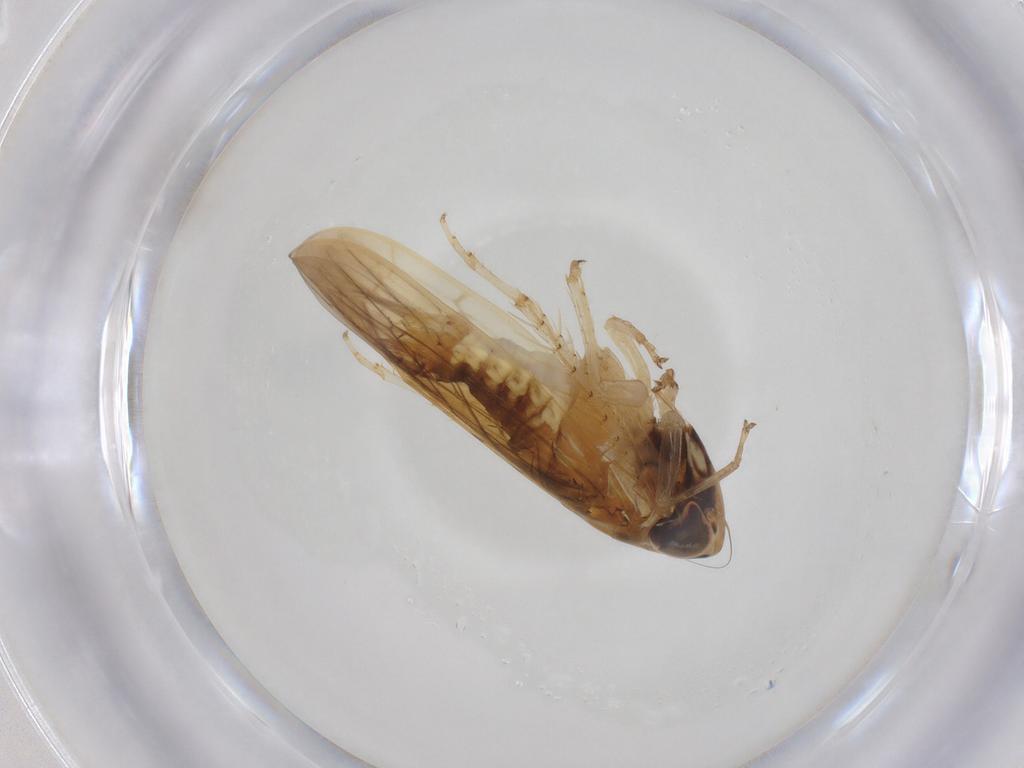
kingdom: Animalia
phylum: Arthropoda
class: Insecta
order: Hemiptera
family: Cicadellidae
